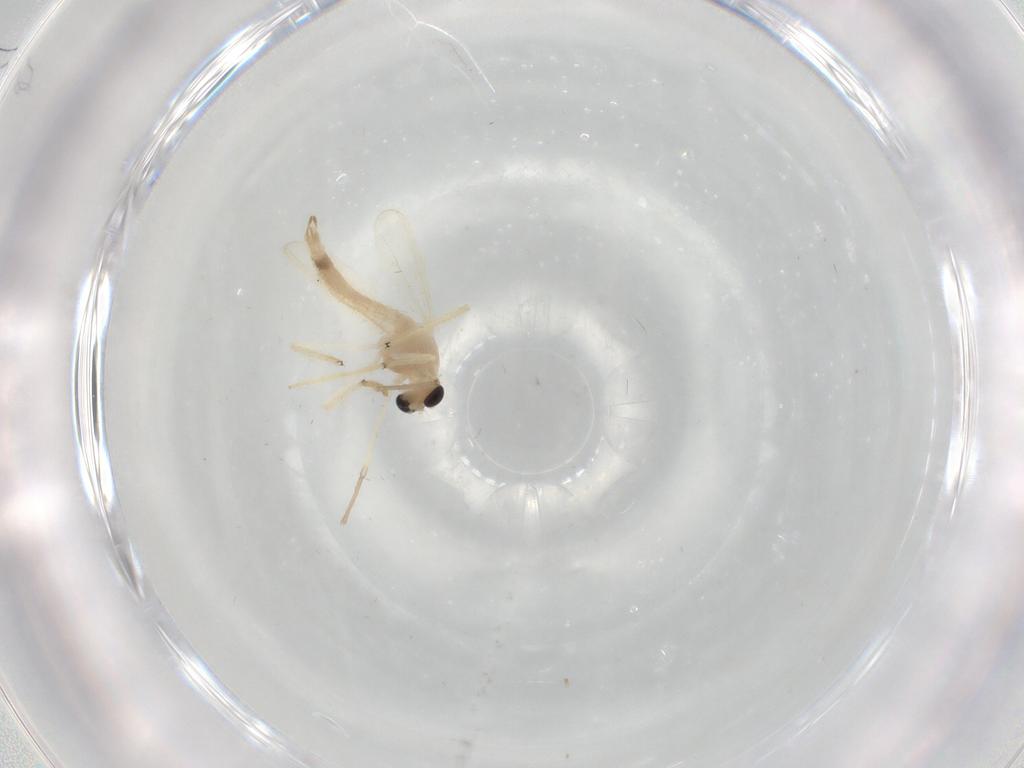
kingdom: Animalia
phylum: Arthropoda
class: Insecta
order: Diptera
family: Chironomidae
